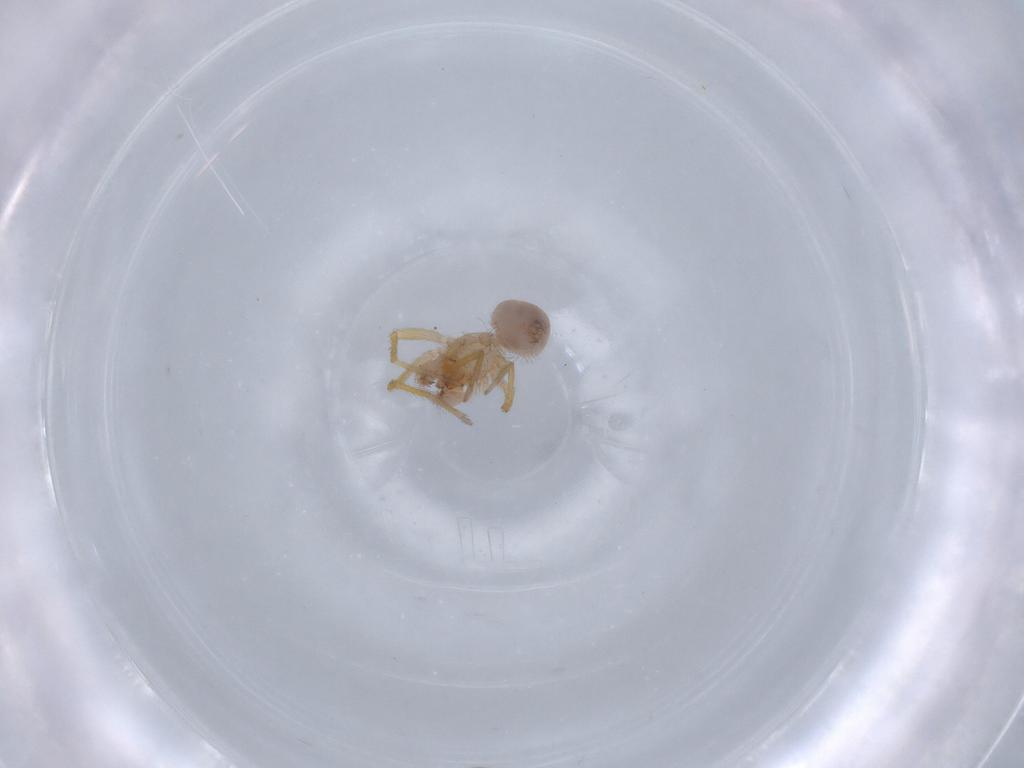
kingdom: Animalia
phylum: Arthropoda
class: Arachnida
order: Araneae
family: Oonopidae
